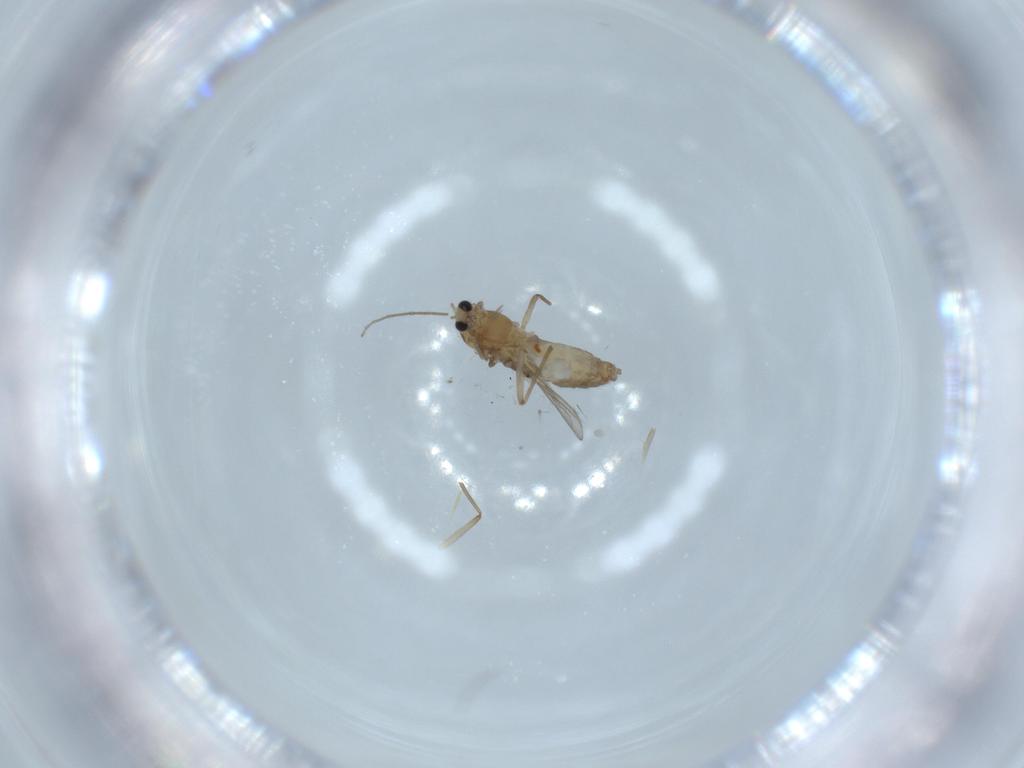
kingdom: Animalia
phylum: Arthropoda
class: Insecta
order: Diptera
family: Chironomidae
